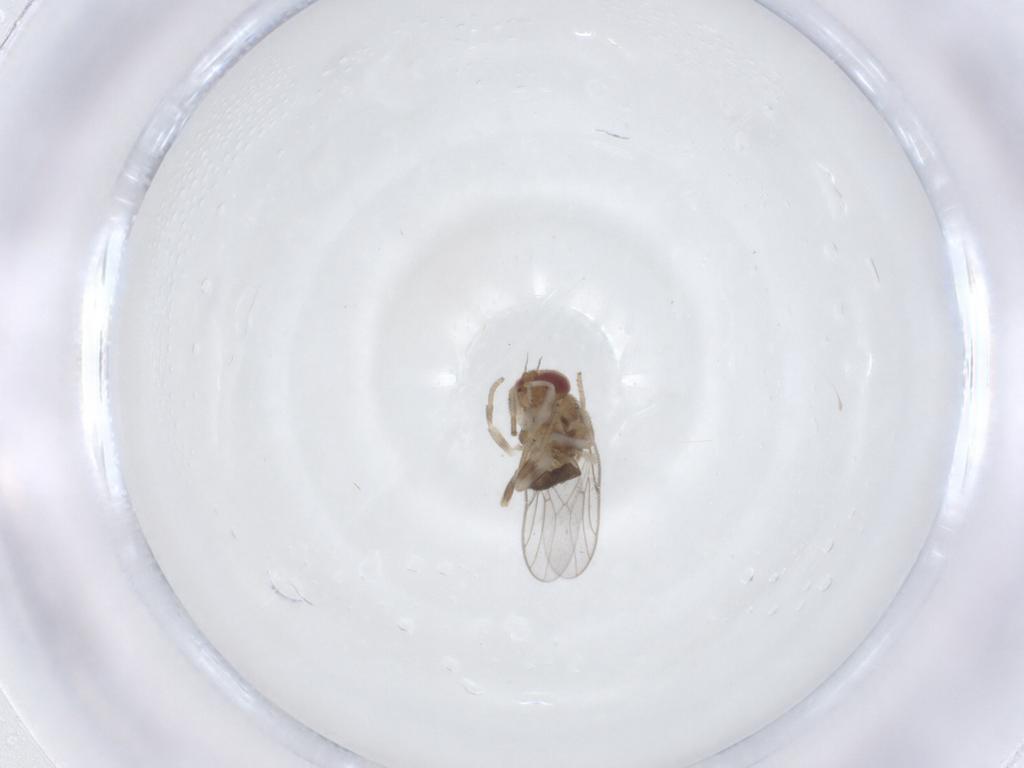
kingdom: Animalia
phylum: Arthropoda
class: Insecta
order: Diptera
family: Chloropidae
